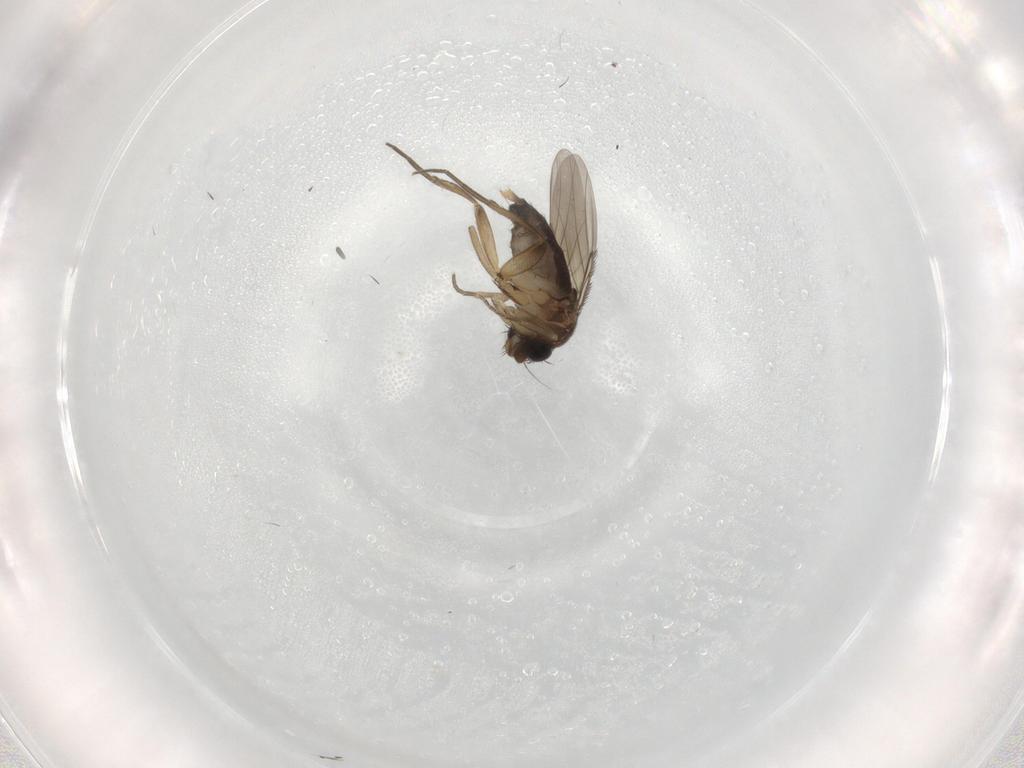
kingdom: Animalia
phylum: Arthropoda
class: Insecta
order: Diptera
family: Phoridae
